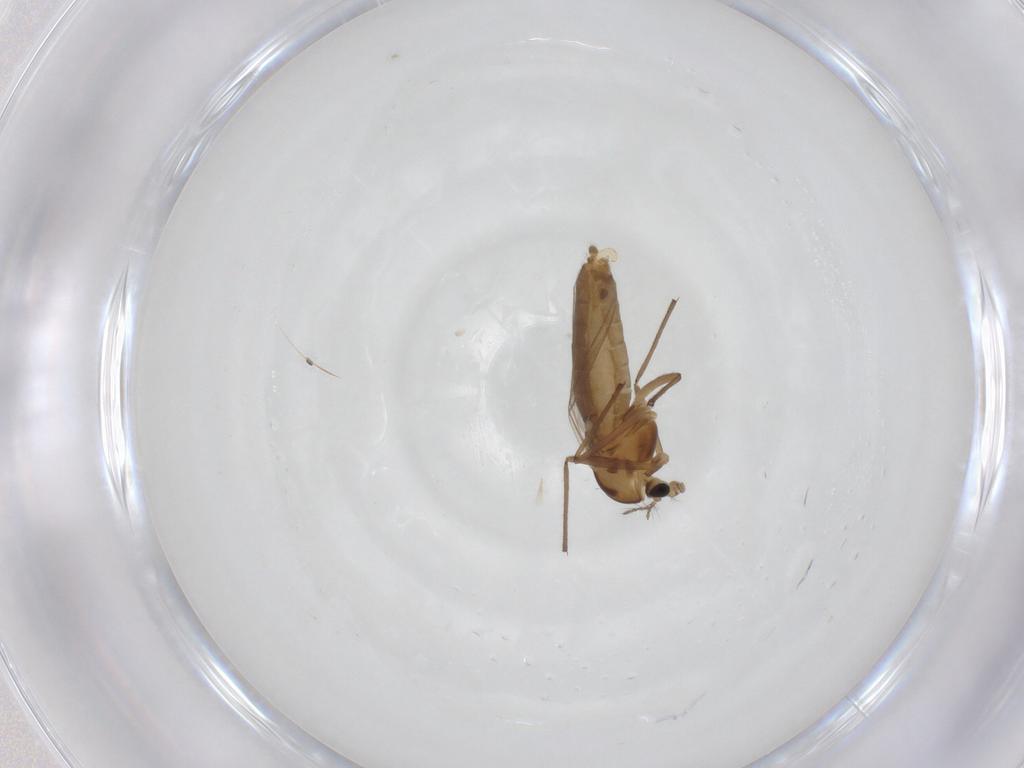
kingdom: Animalia
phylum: Arthropoda
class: Insecta
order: Diptera
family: Chironomidae
